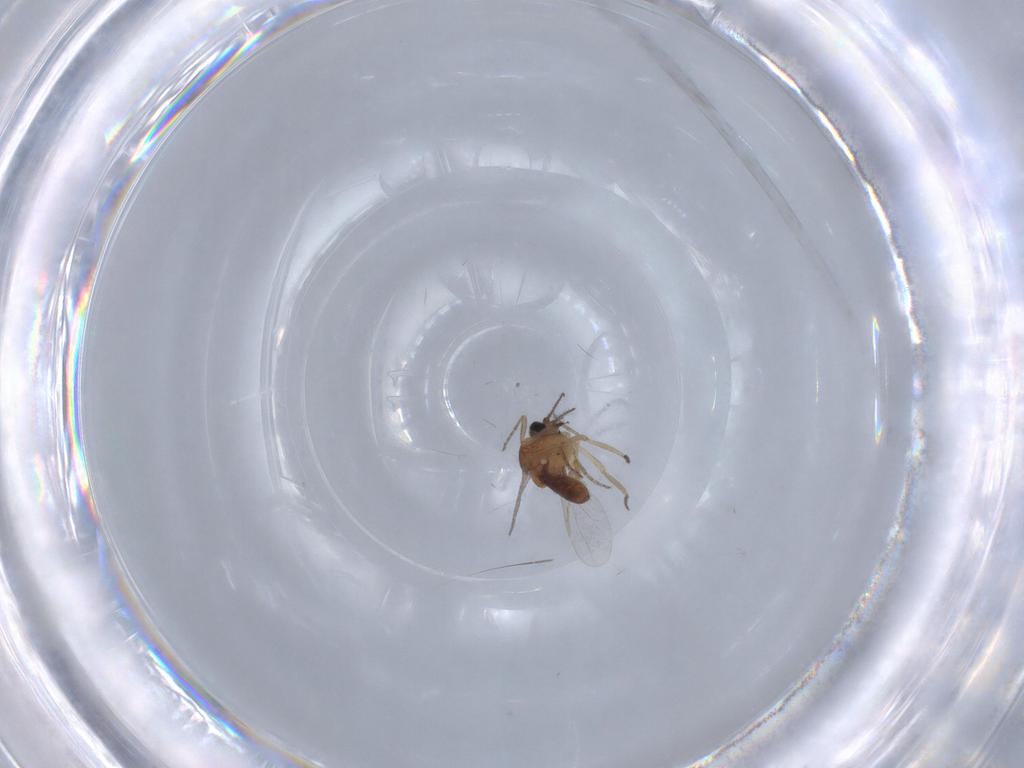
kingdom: Animalia
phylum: Arthropoda
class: Insecta
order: Diptera
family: Ceratopogonidae
